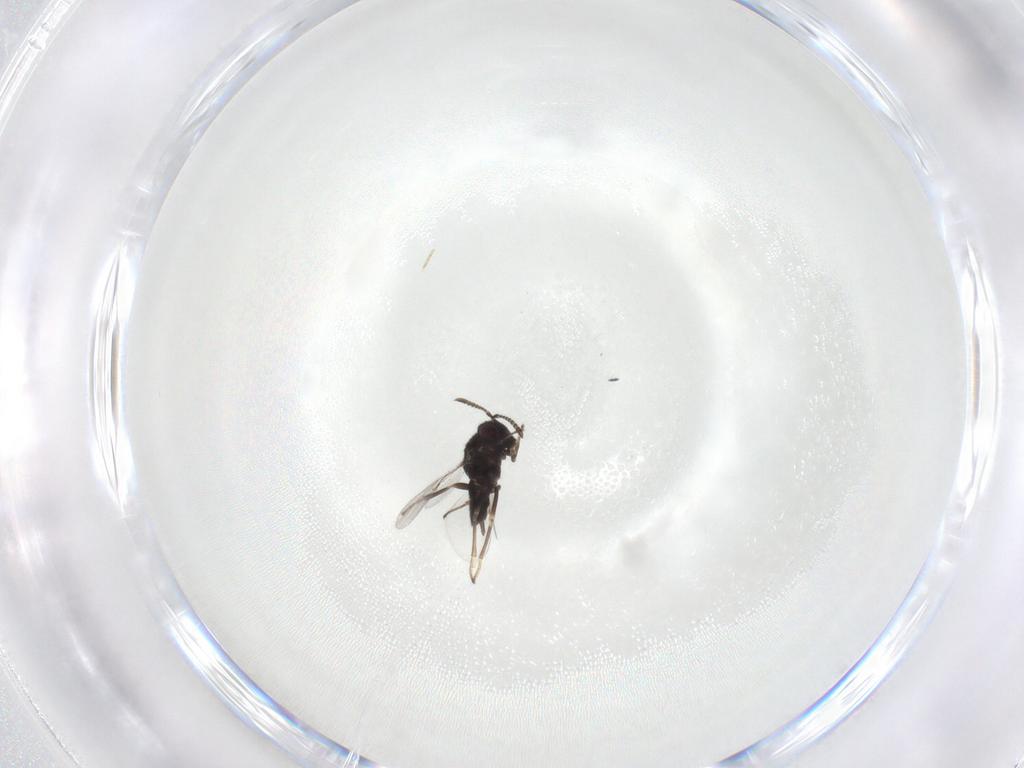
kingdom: Animalia
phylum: Arthropoda
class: Insecta
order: Hymenoptera
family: Encyrtidae
